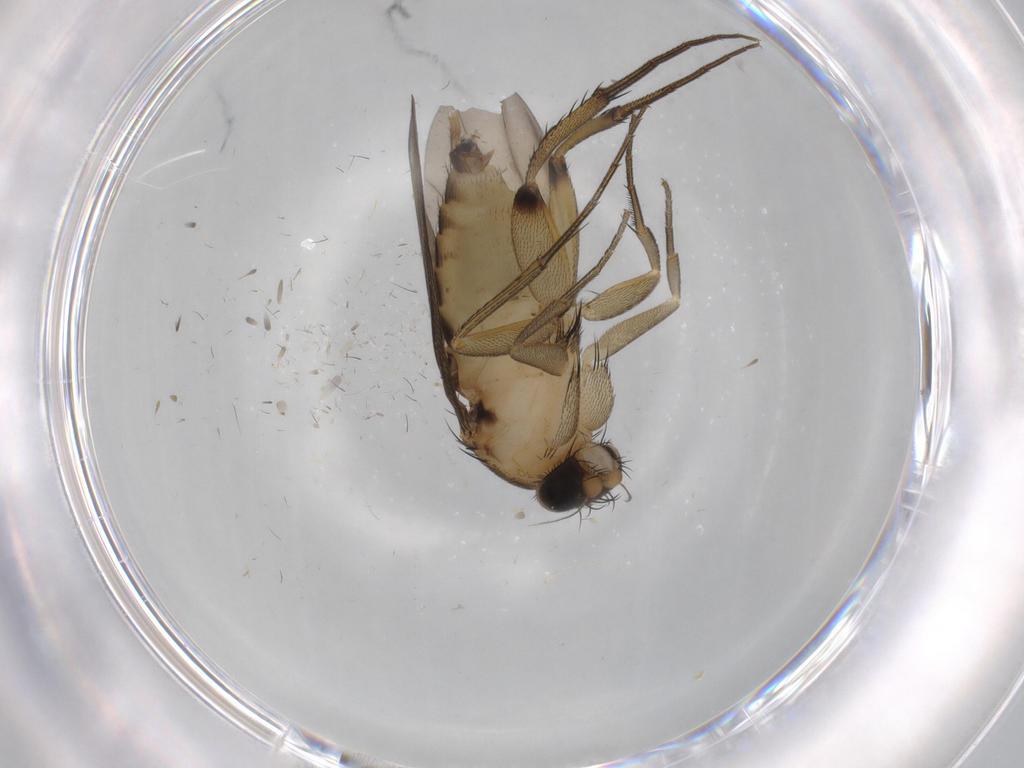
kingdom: Animalia
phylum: Arthropoda
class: Insecta
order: Diptera
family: Phoridae
